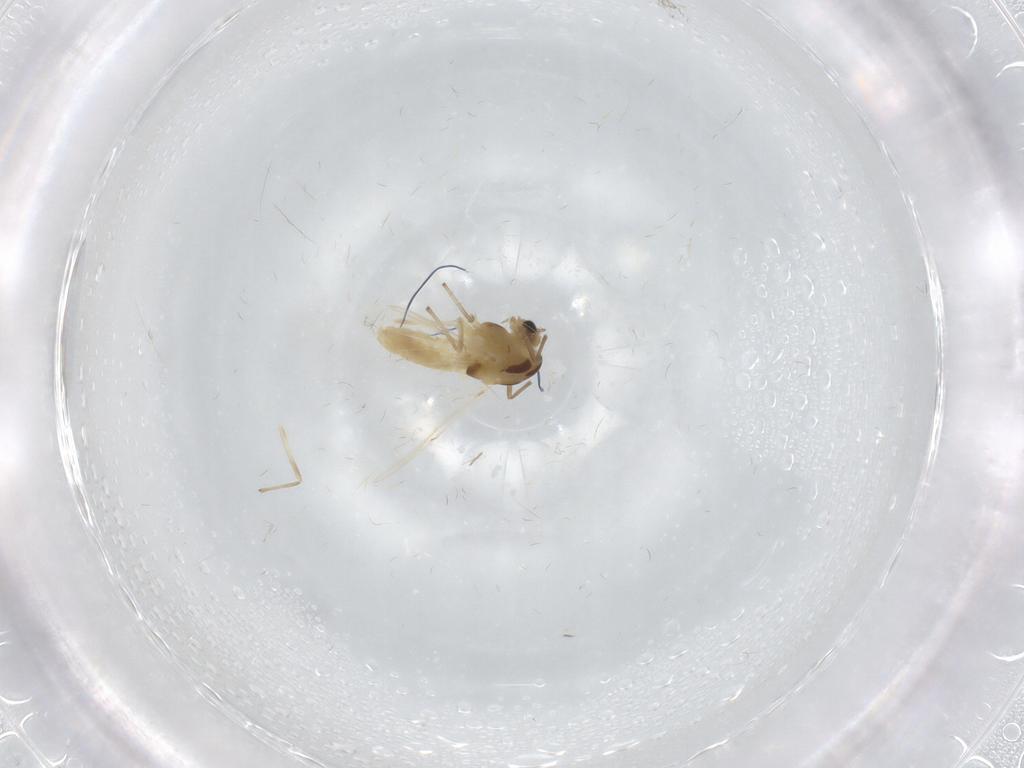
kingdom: Animalia
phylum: Arthropoda
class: Insecta
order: Diptera
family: Chironomidae
